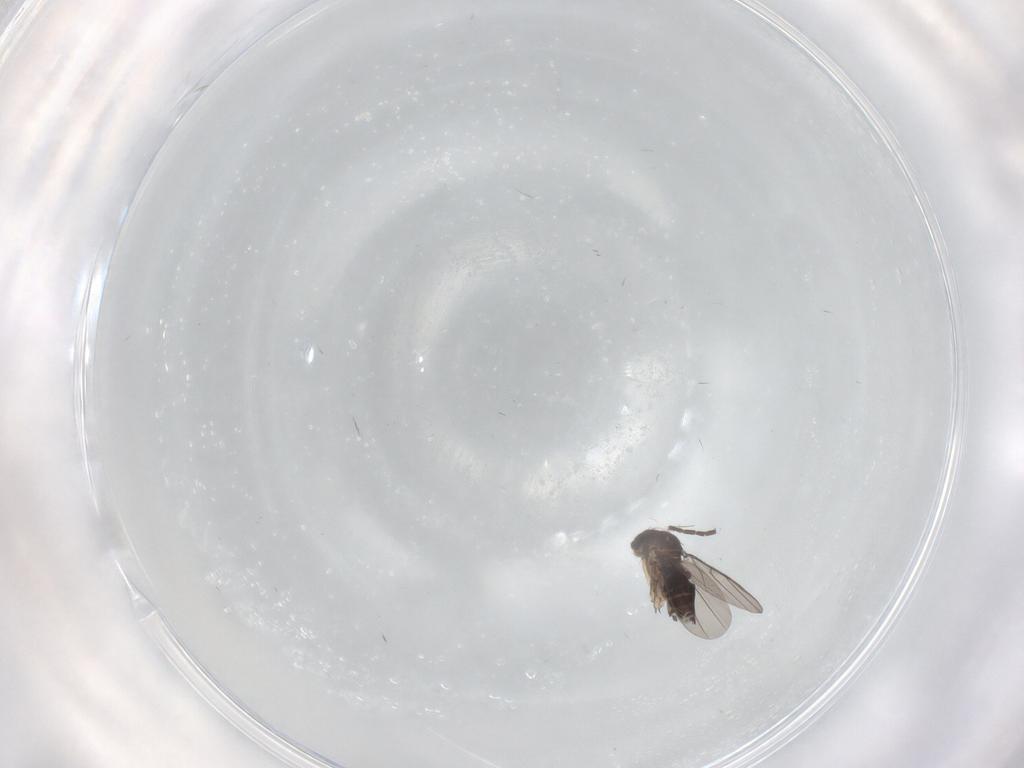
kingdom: Animalia
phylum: Arthropoda
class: Insecta
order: Diptera
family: Phoridae
